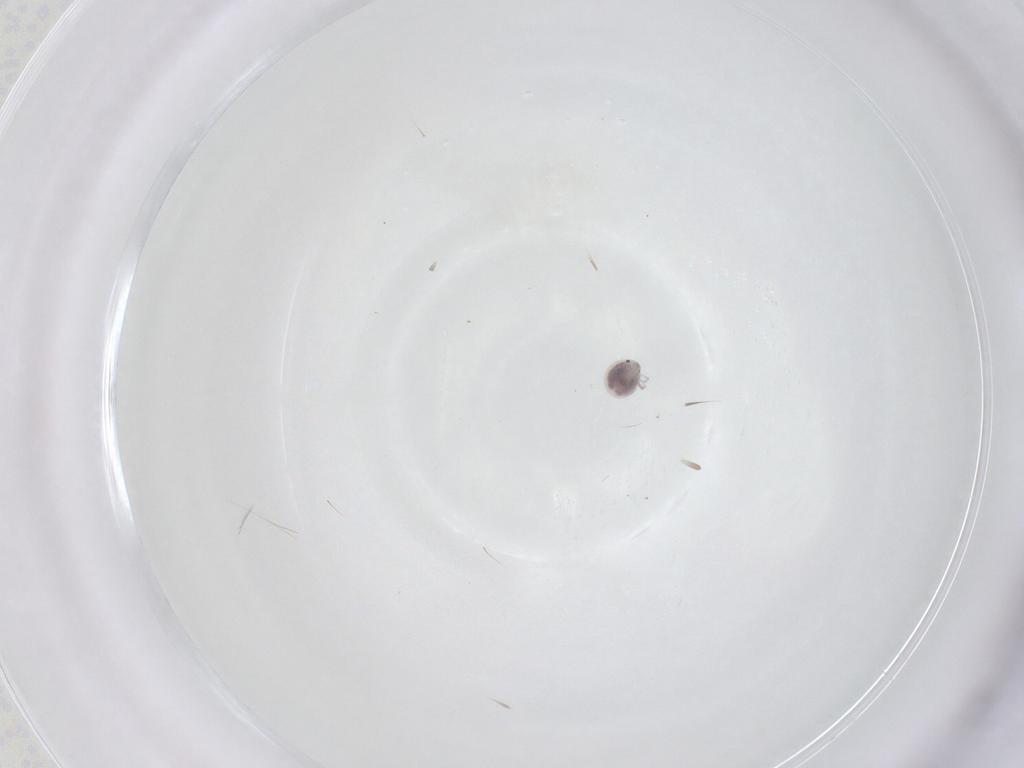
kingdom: Animalia
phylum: Arthropoda
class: Arachnida
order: Trombidiformes
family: Pionidae
